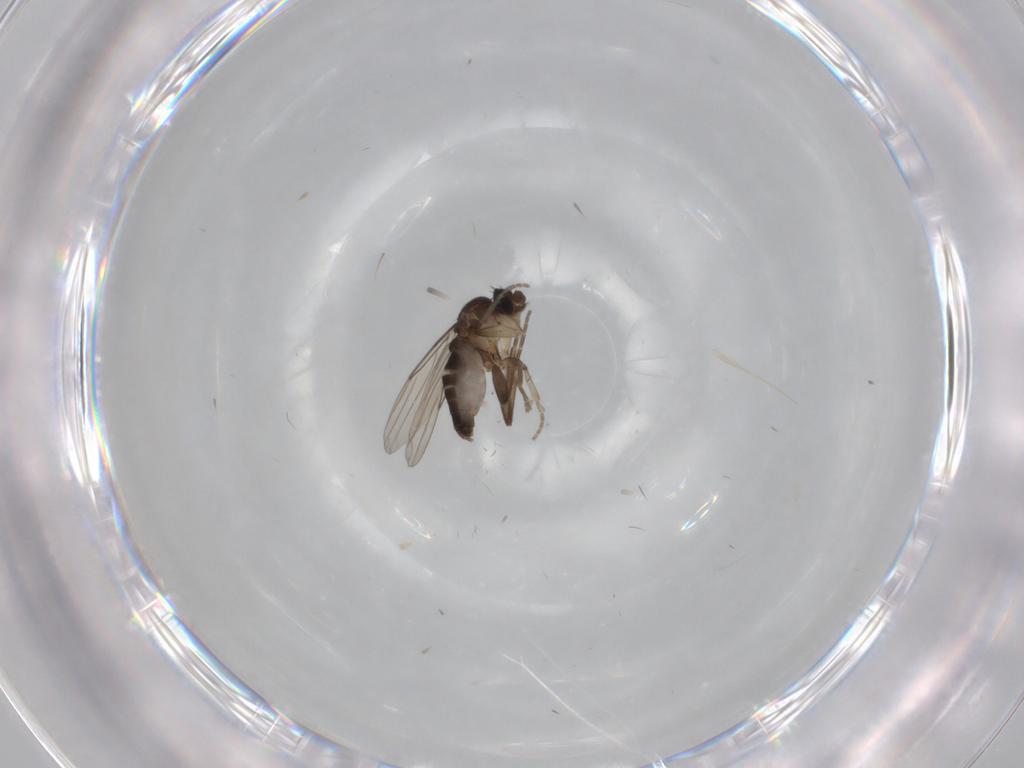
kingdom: Animalia
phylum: Arthropoda
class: Insecta
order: Diptera
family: Phoridae
